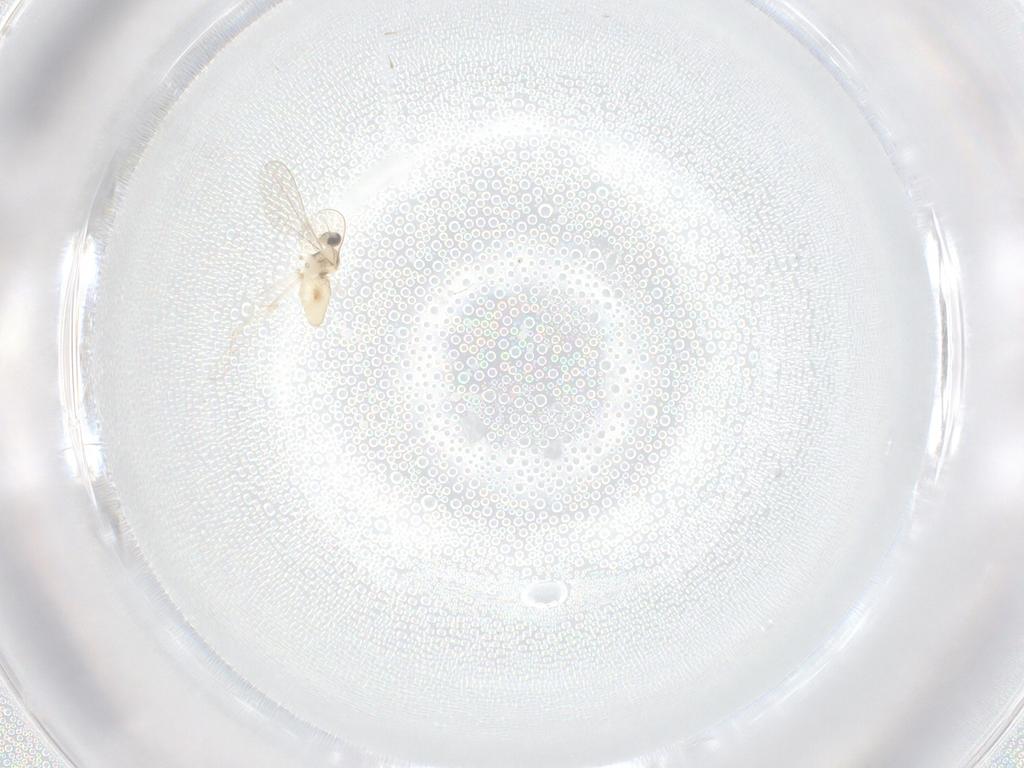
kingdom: Animalia
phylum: Arthropoda
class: Insecta
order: Diptera
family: Cecidomyiidae
